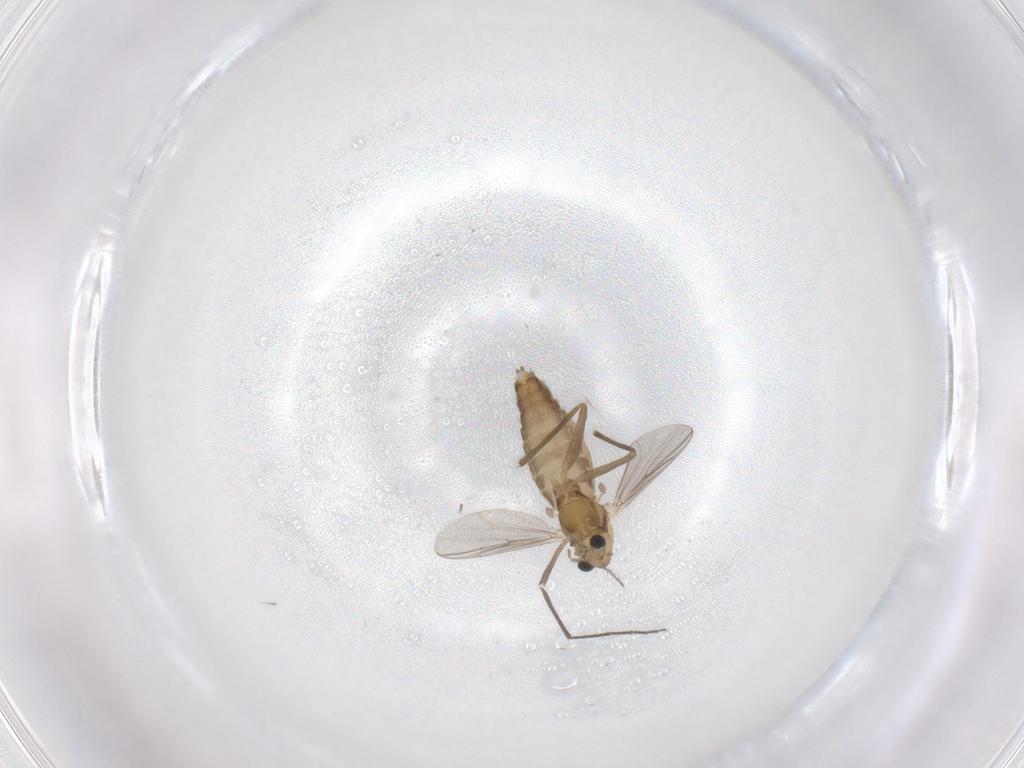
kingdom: Animalia
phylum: Arthropoda
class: Insecta
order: Diptera
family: Chironomidae
